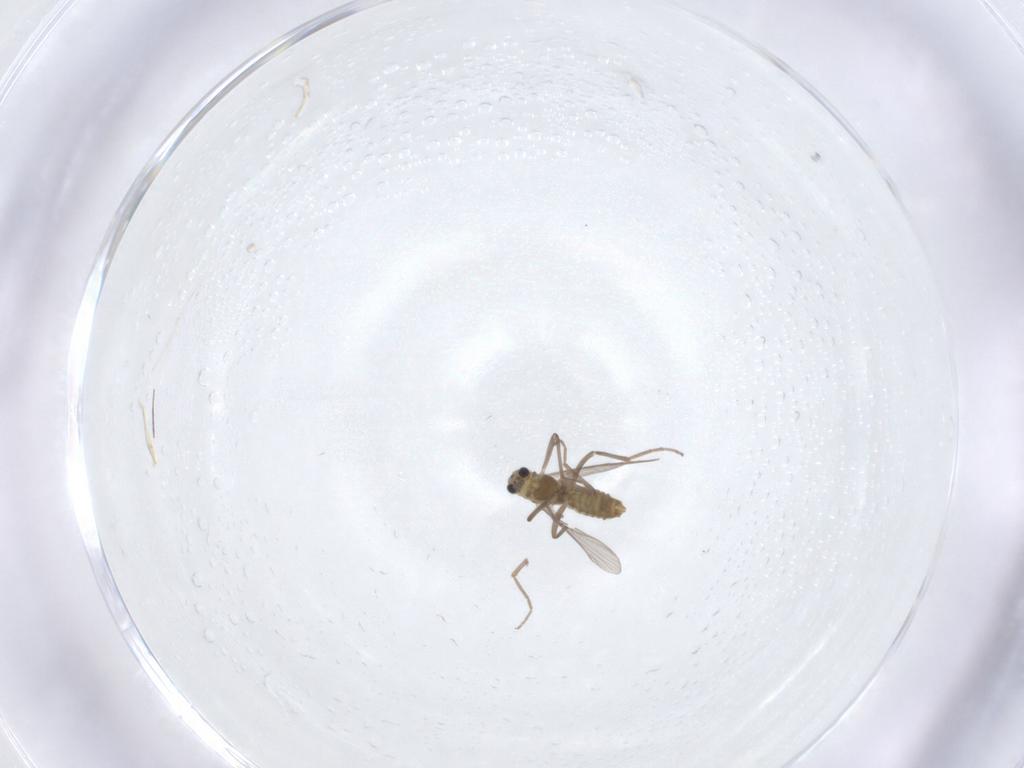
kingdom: Animalia
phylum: Arthropoda
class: Insecta
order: Diptera
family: Chironomidae
